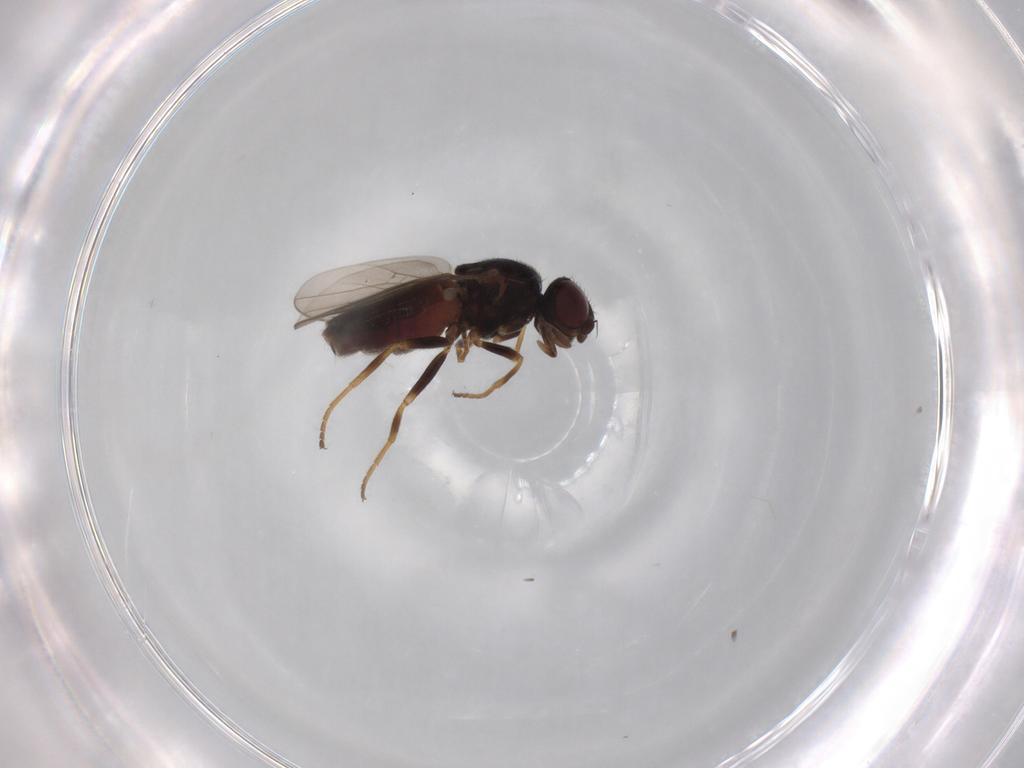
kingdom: Animalia
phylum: Arthropoda
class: Insecta
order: Diptera
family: Chloropidae
